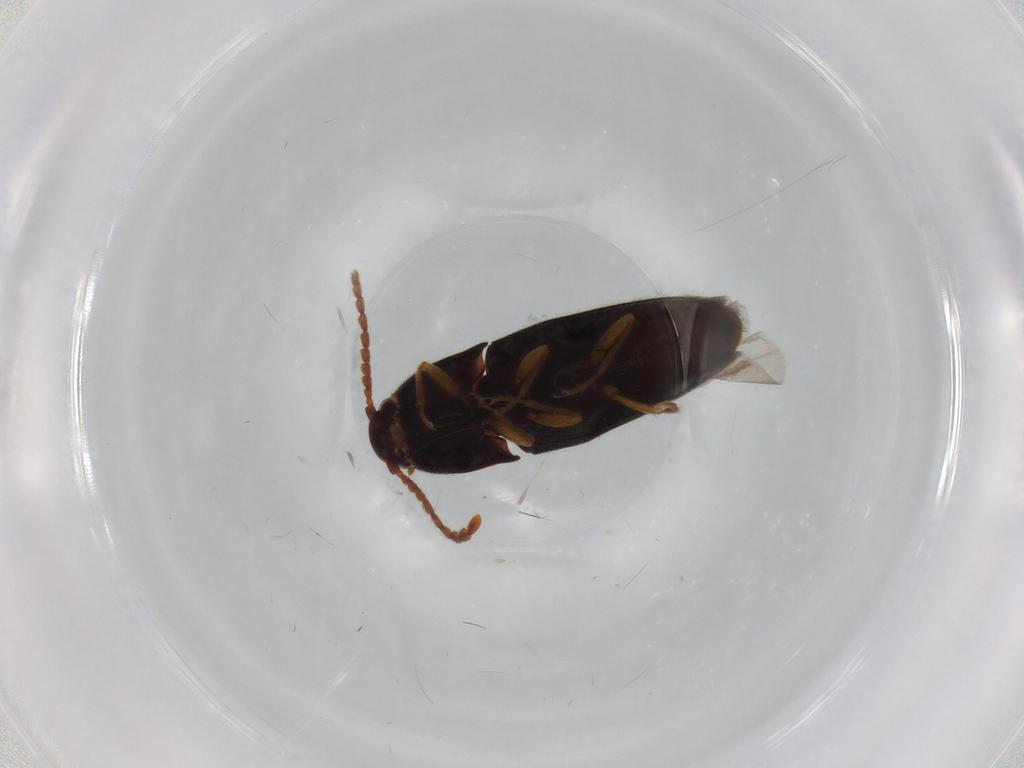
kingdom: Animalia
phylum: Arthropoda
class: Insecta
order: Coleoptera
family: Elateridae
